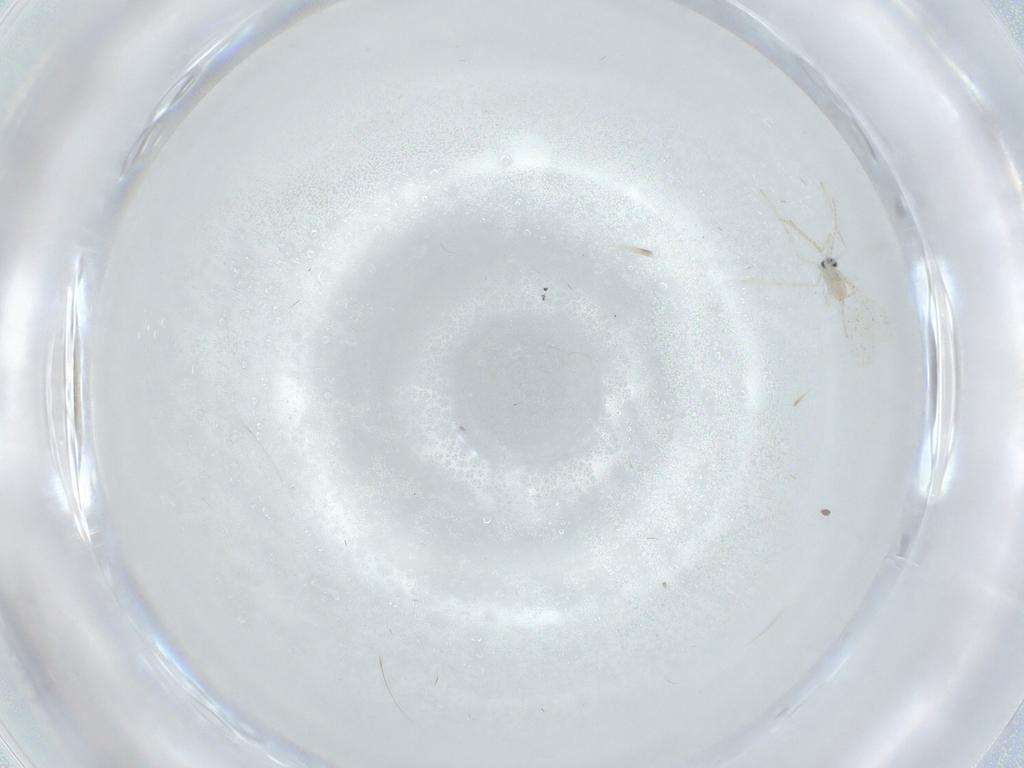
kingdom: Animalia
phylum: Arthropoda
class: Insecta
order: Diptera
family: Cecidomyiidae
